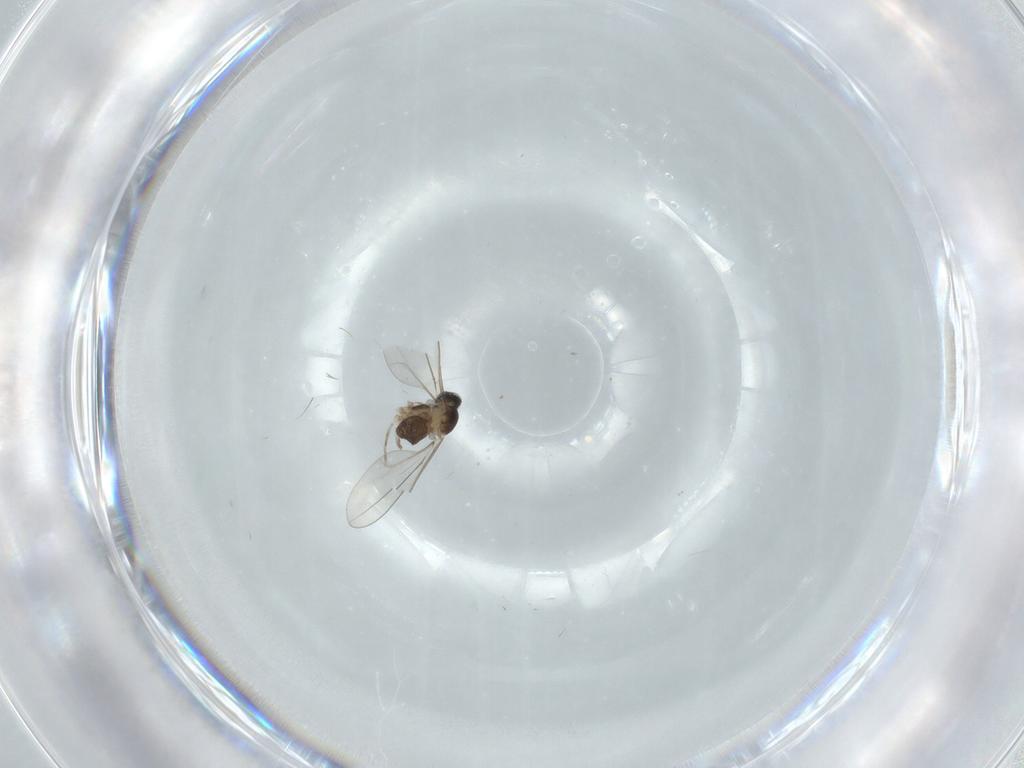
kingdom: Animalia
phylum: Arthropoda
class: Insecta
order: Diptera
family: Cecidomyiidae
